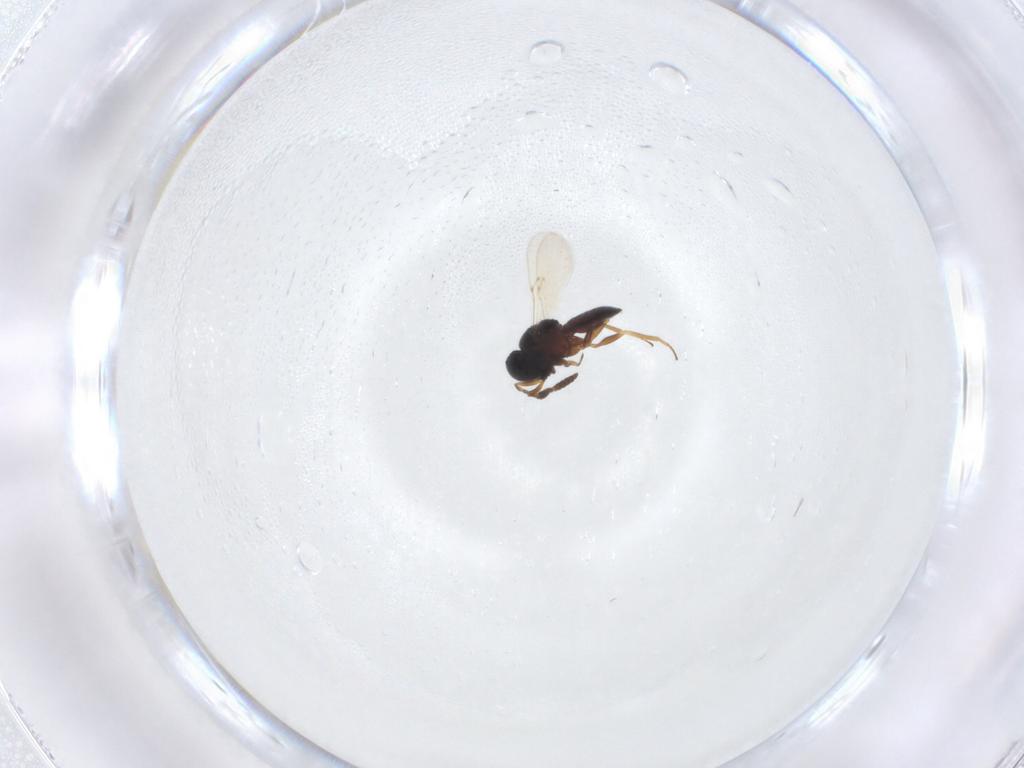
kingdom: Animalia
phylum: Arthropoda
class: Insecta
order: Hymenoptera
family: Scelionidae
